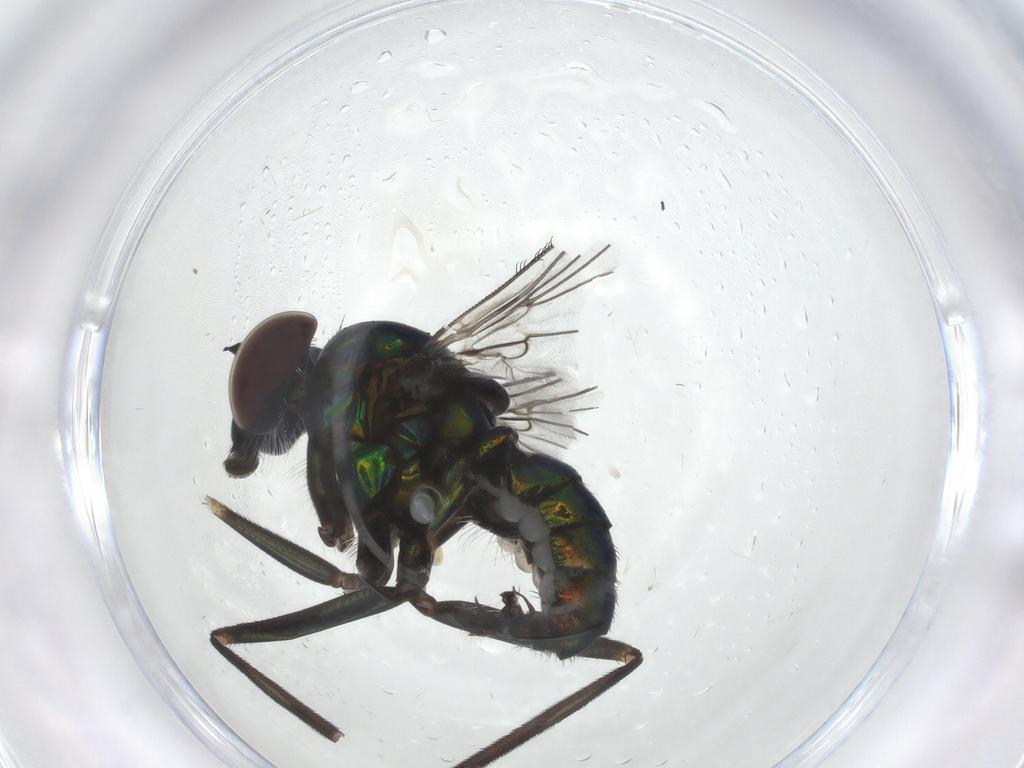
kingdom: Animalia
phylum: Arthropoda
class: Insecta
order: Diptera
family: Dolichopodidae
